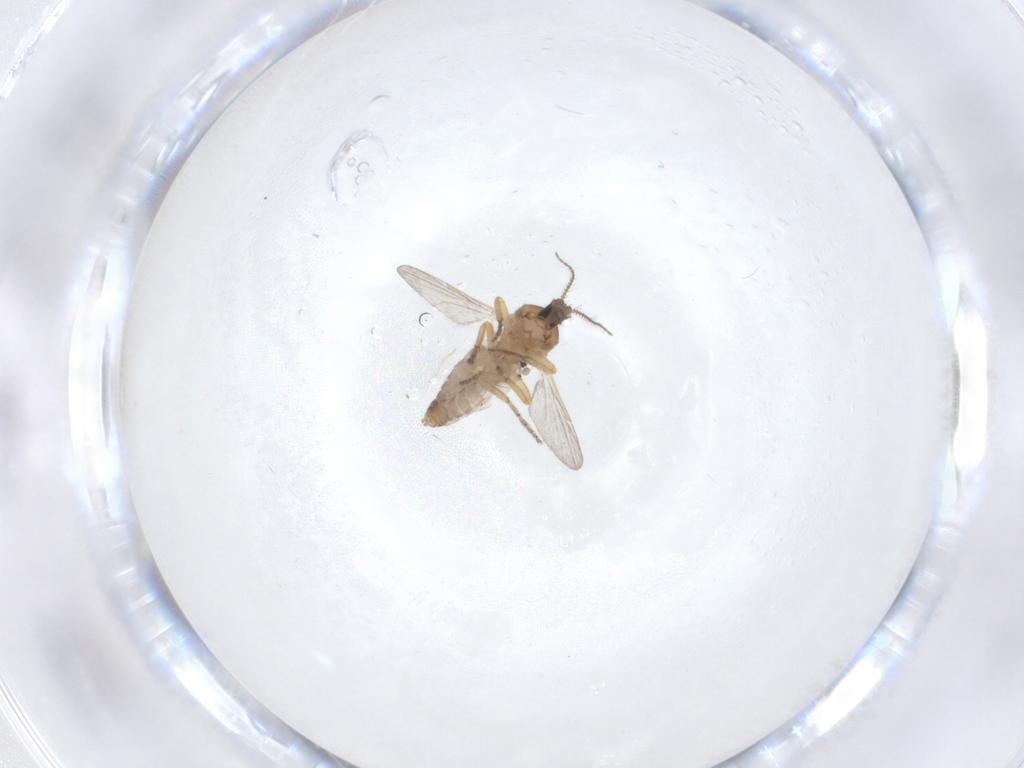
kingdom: Animalia
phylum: Arthropoda
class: Insecta
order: Diptera
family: Ceratopogonidae
